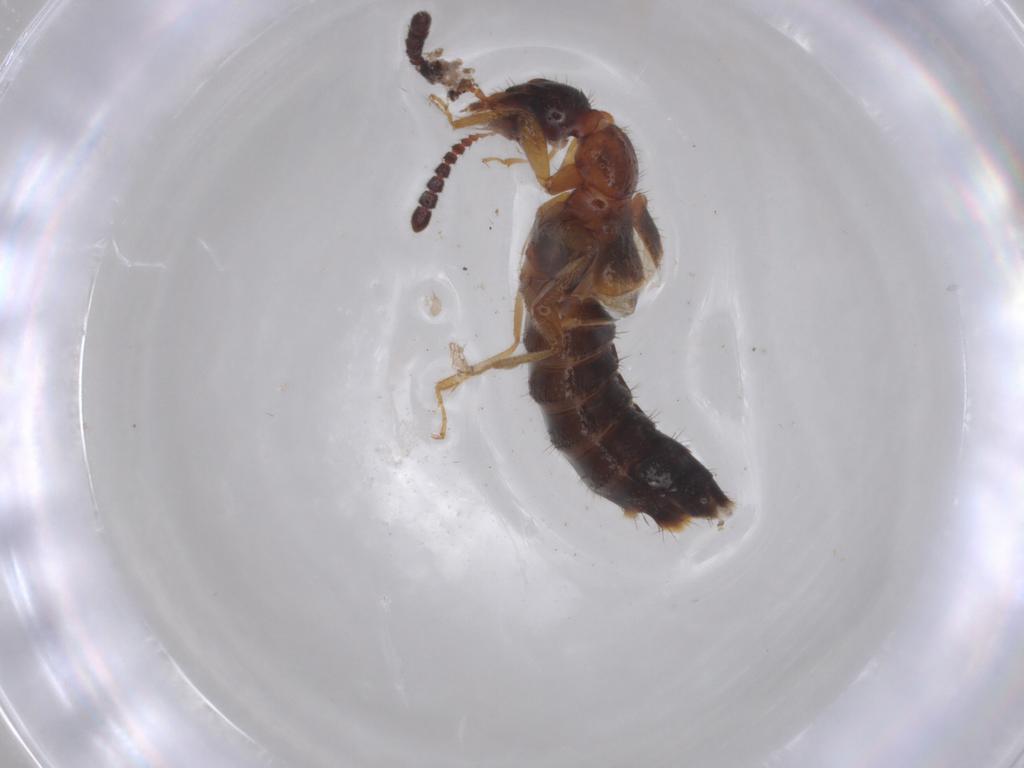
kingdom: Animalia
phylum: Arthropoda
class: Insecta
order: Coleoptera
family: Staphylinidae
